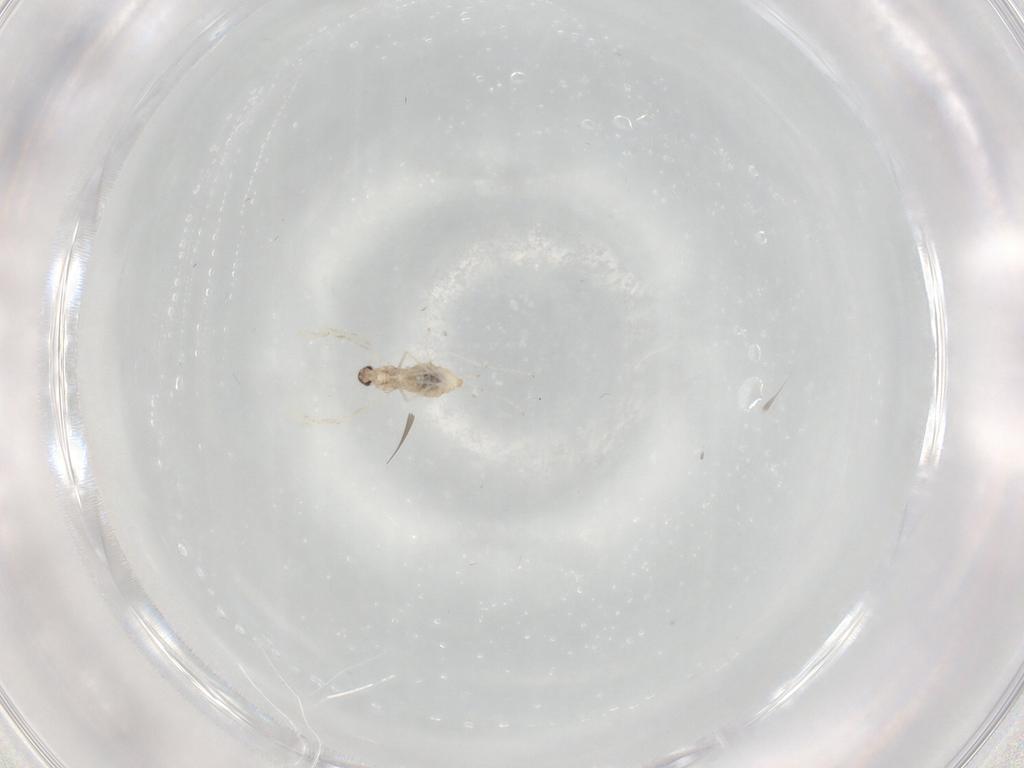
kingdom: Animalia
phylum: Arthropoda
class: Insecta
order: Diptera
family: Cecidomyiidae
